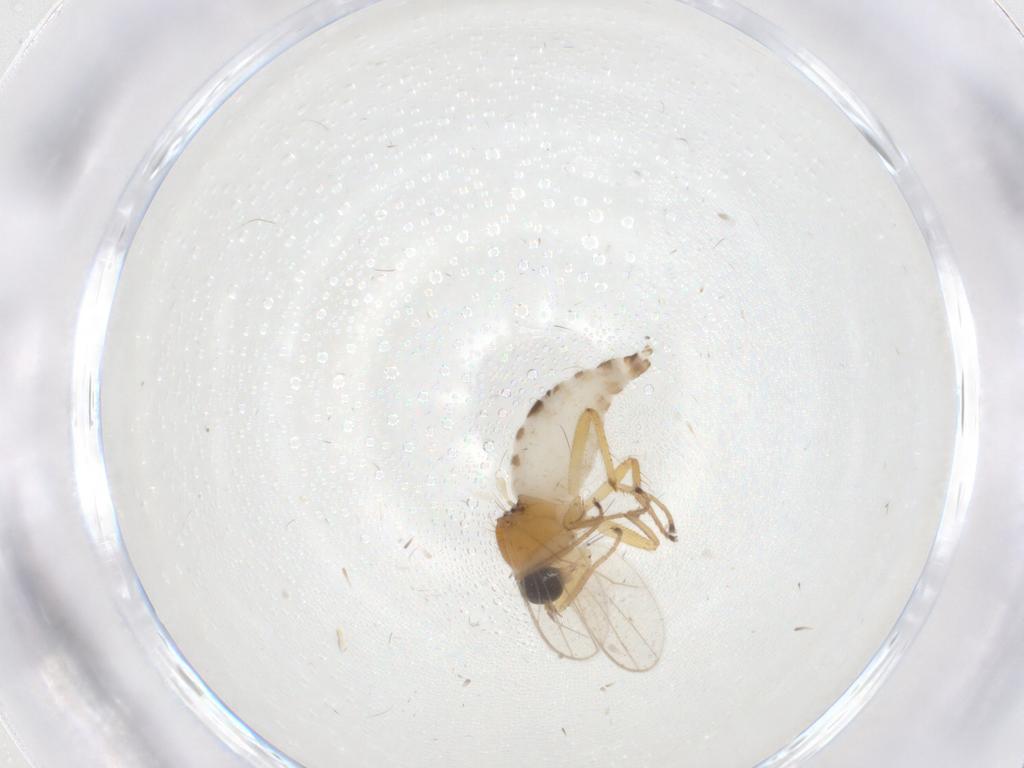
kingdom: Animalia
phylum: Arthropoda
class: Insecta
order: Diptera
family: Hybotidae
